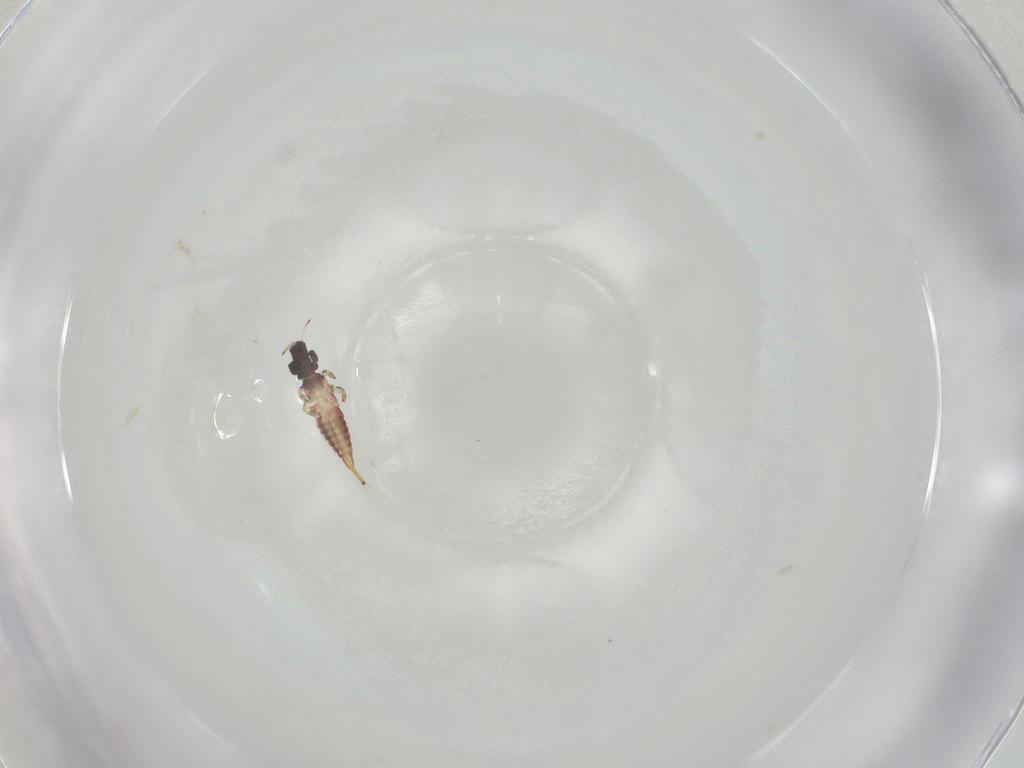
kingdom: Animalia
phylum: Arthropoda
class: Insecta
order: Thysanoptera
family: Phlaeothripidae
